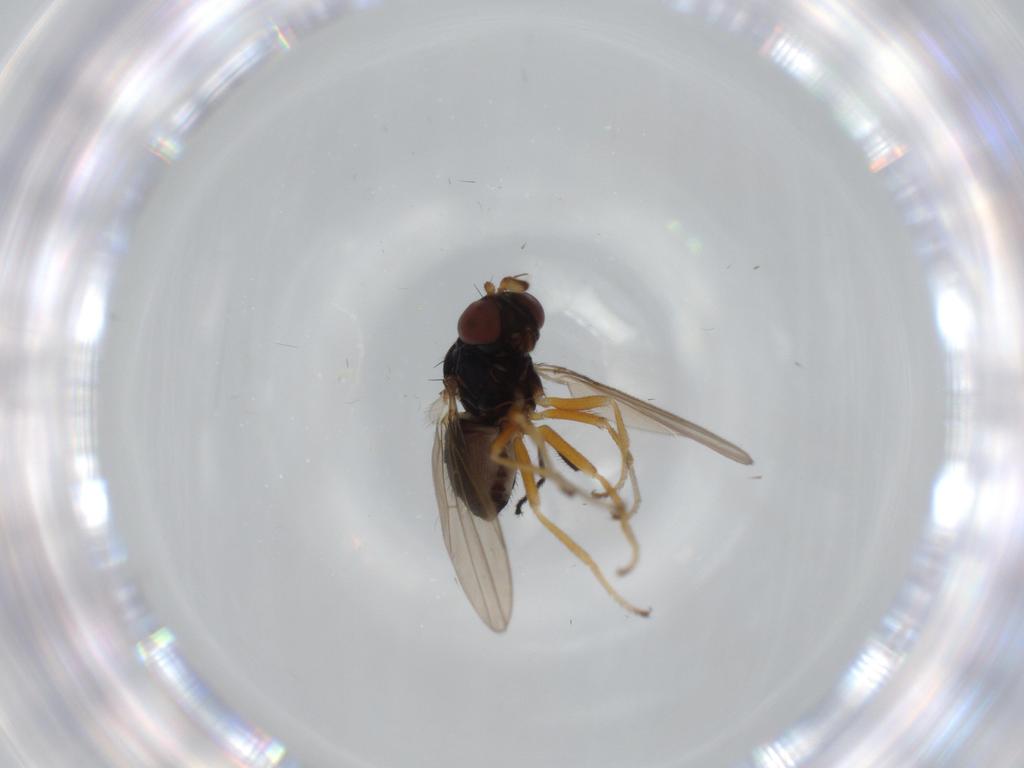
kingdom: Animalia
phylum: Arthropoda
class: Insecta
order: Diptera
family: Ephydridae
